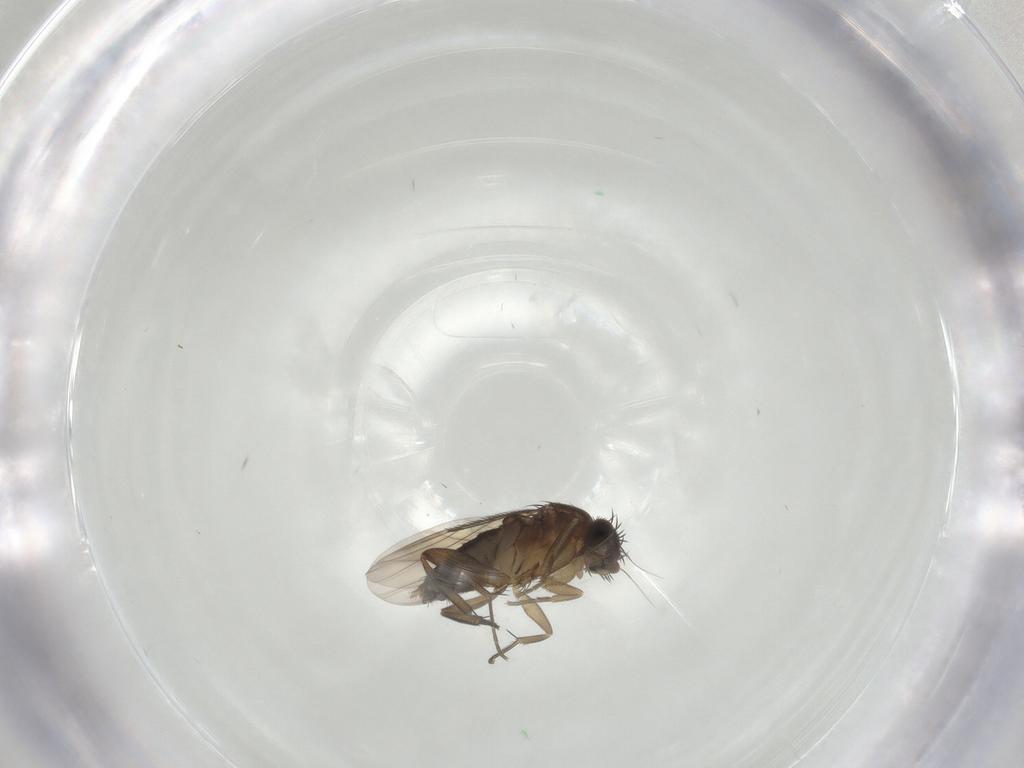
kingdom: Animalia
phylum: Arthropoda
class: Insecta
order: Diptera
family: Phoridae
